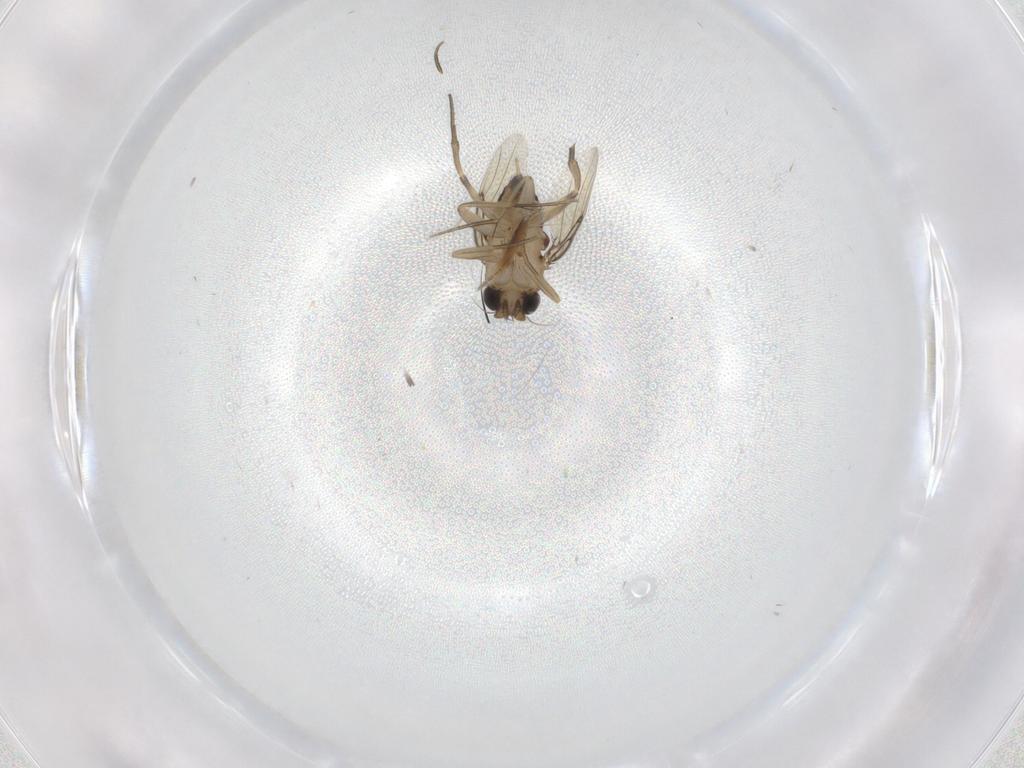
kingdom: Animalia
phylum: Arthropoda
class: Insecta
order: Diptera
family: Phoridae
